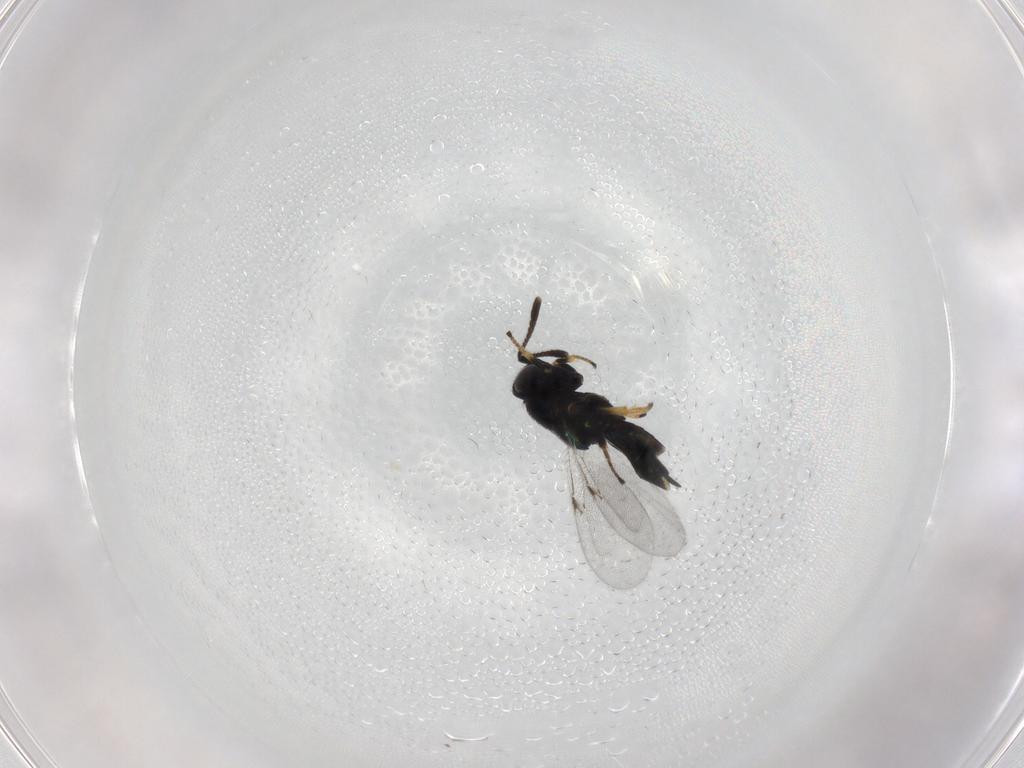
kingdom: Animalia
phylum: Arthropoda
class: Insecta
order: Hymenoptera
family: Encyrtidae
